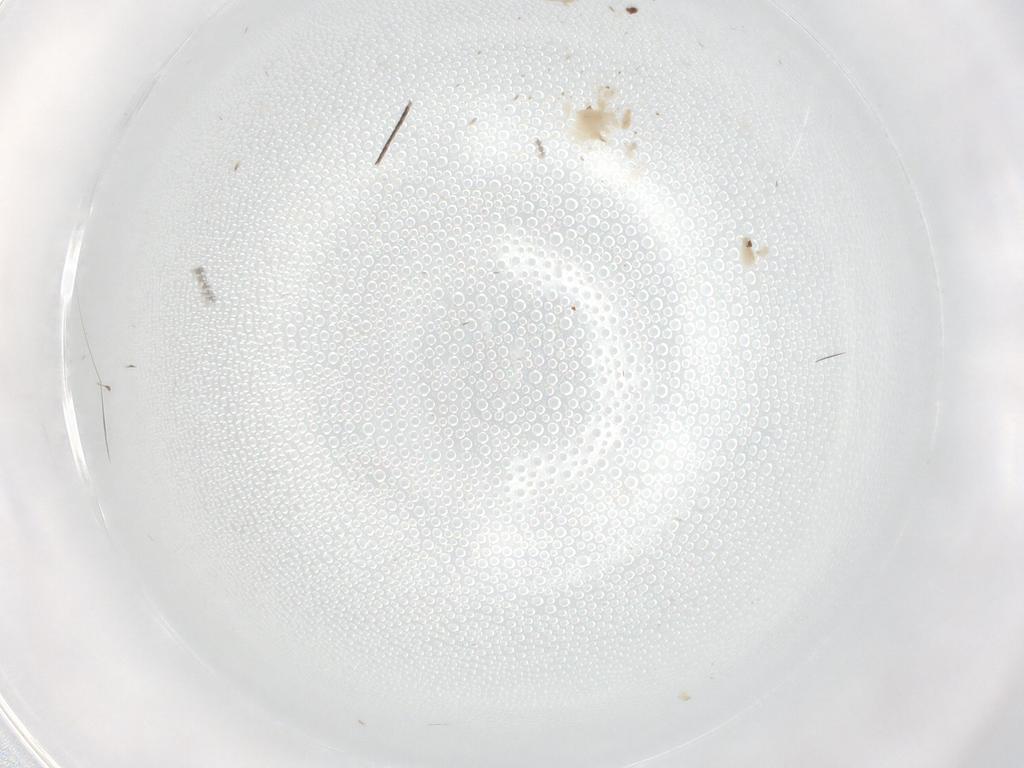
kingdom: Animalia
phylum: Arthropoda
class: Insecta
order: Diptera
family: Cecidomyiidae
